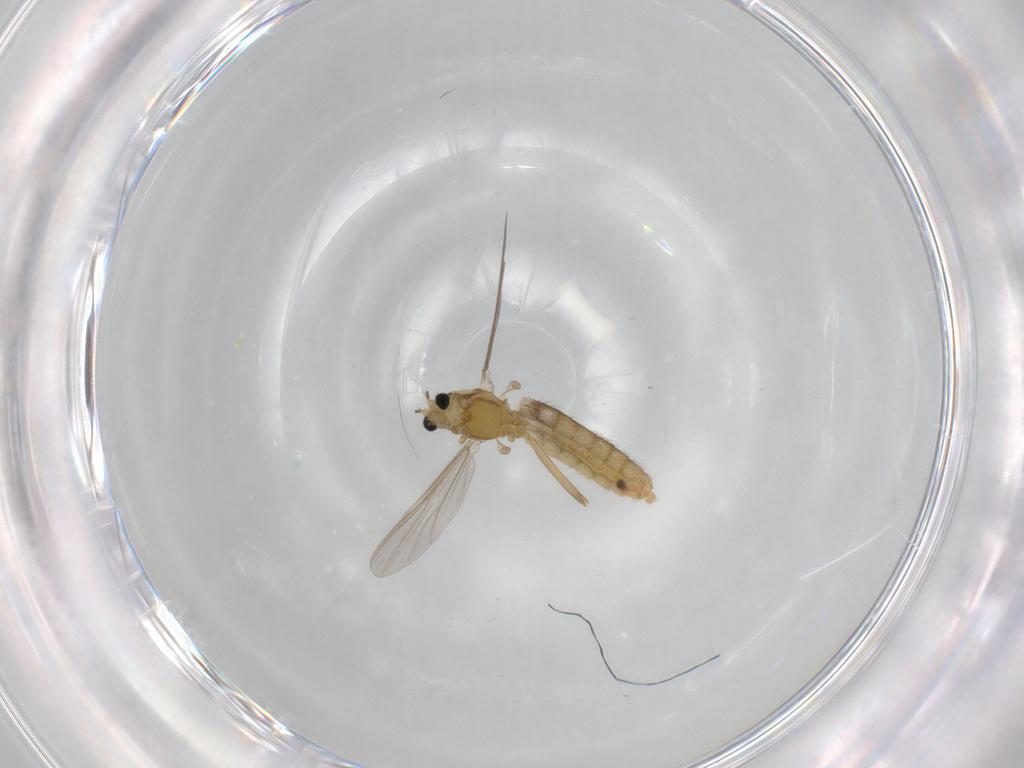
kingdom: Animalia
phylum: Arthropoda
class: Insecta
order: Diptera
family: Chironomidae
